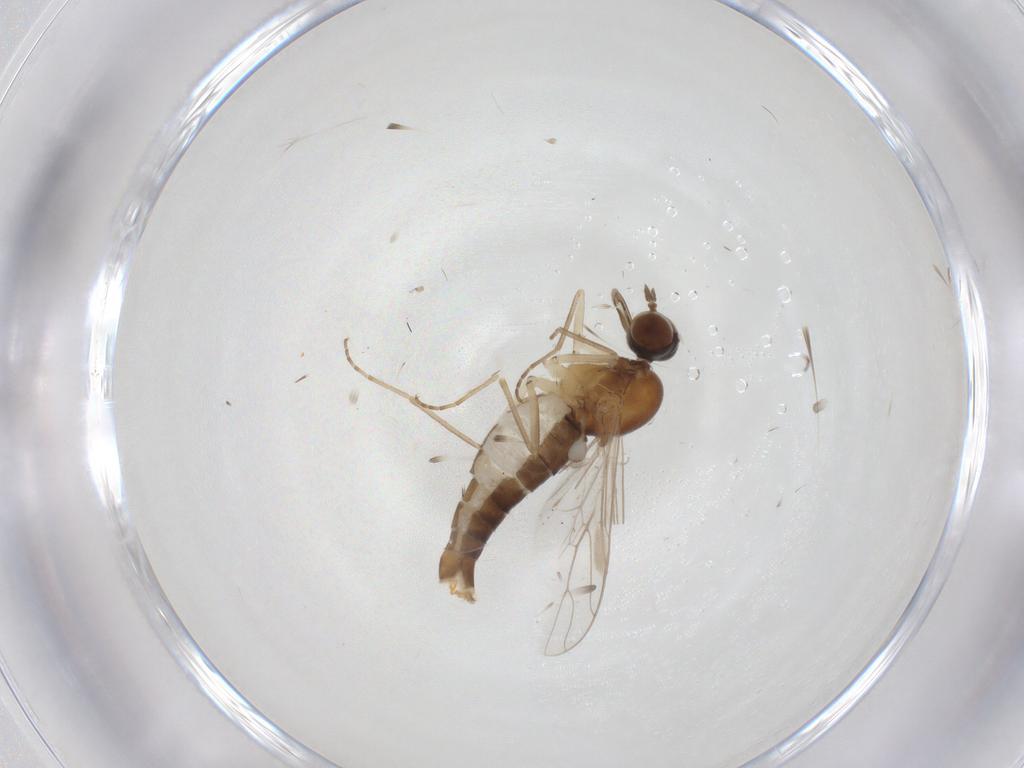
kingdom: Animalia
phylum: Arthropoda
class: Insecta
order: Diptera
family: Scenopinidae
